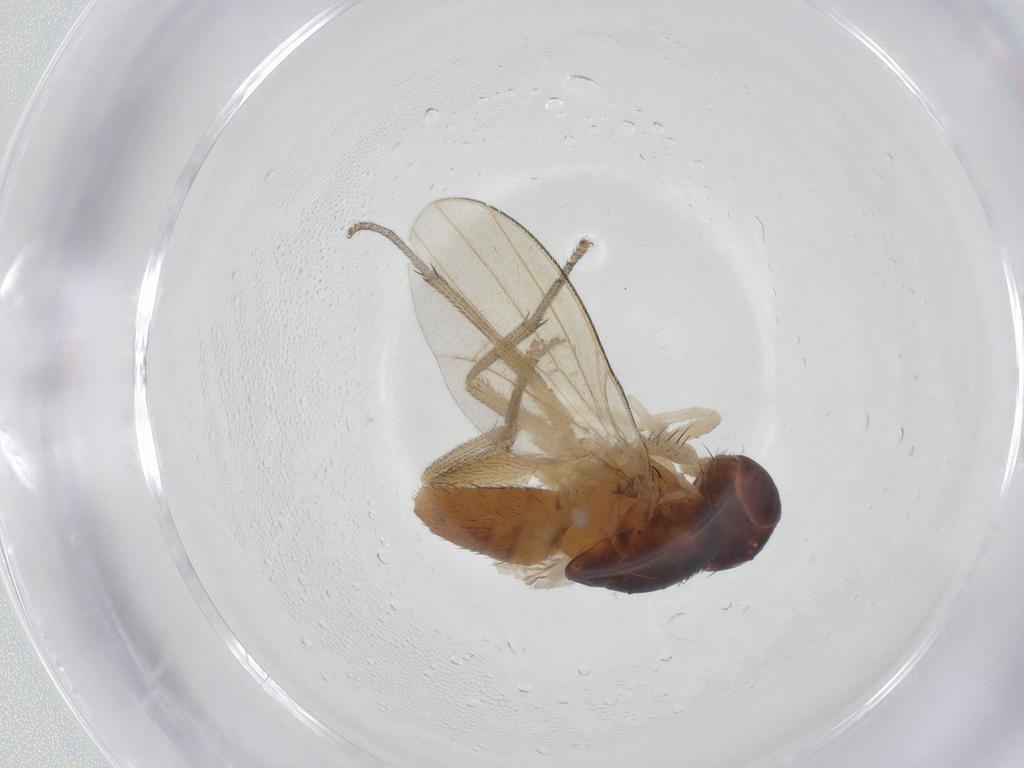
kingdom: Animalia
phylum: Arthropoda
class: Insecta
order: Diptera
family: Lauxaniidae
